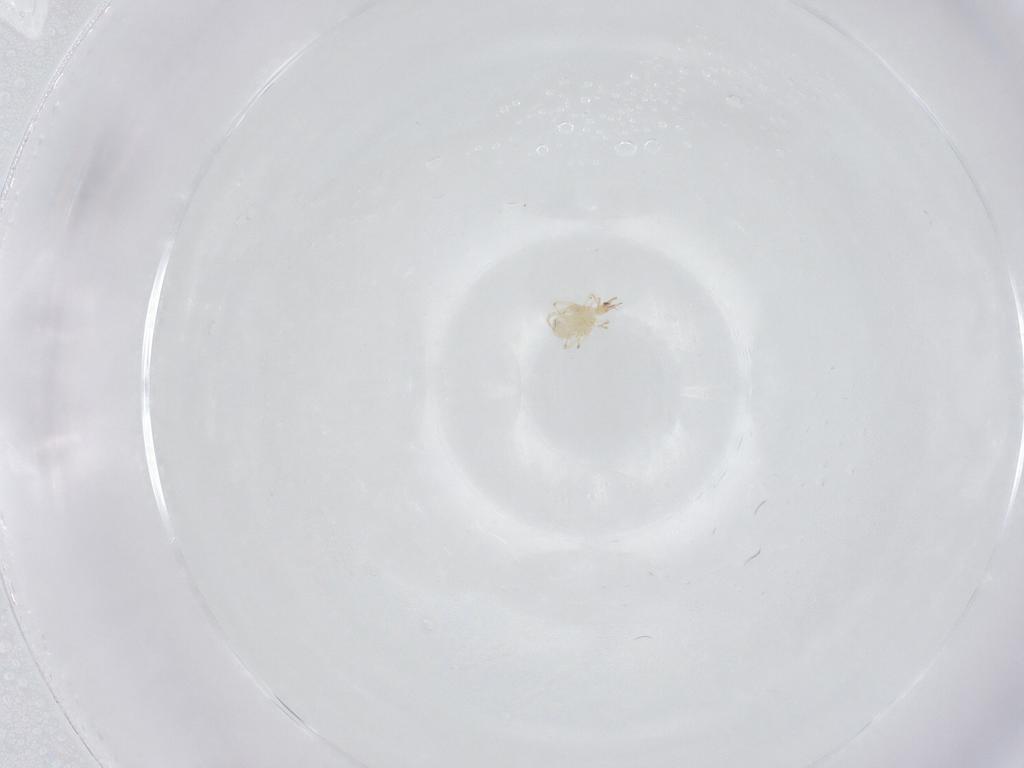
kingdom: Animalia
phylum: Arthropoda
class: Arachnida
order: Trombidiformes
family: Cunaxidae
